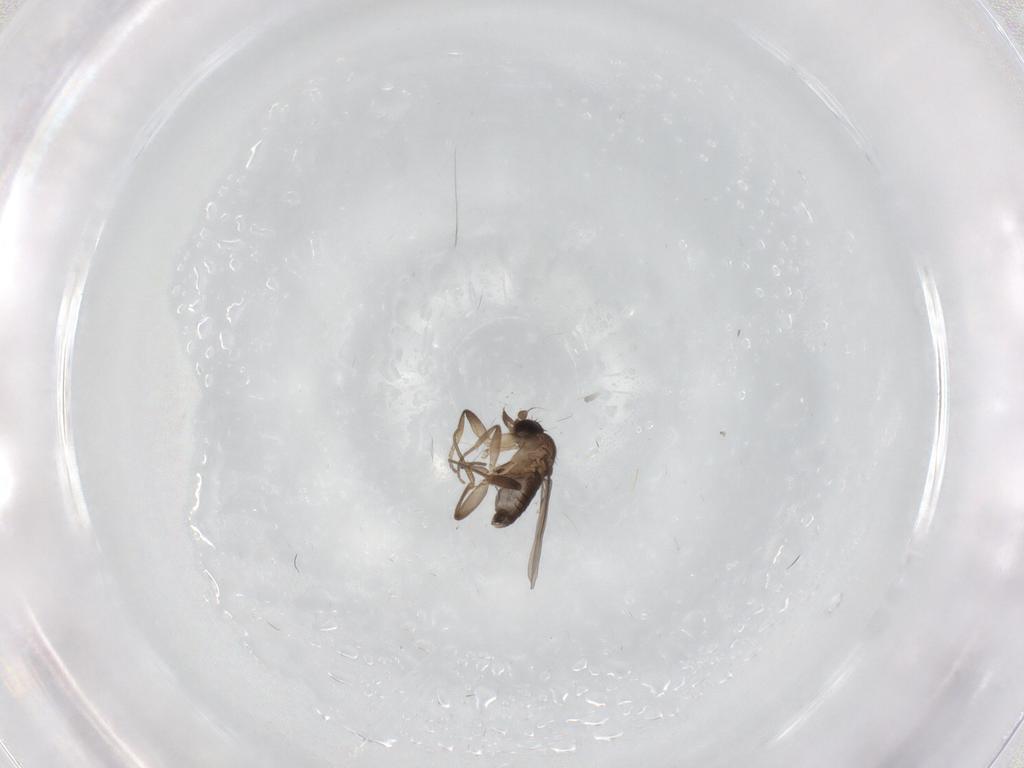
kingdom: Animalia
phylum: Arthropoda
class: Insecta
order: Diptera
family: Phoridae
